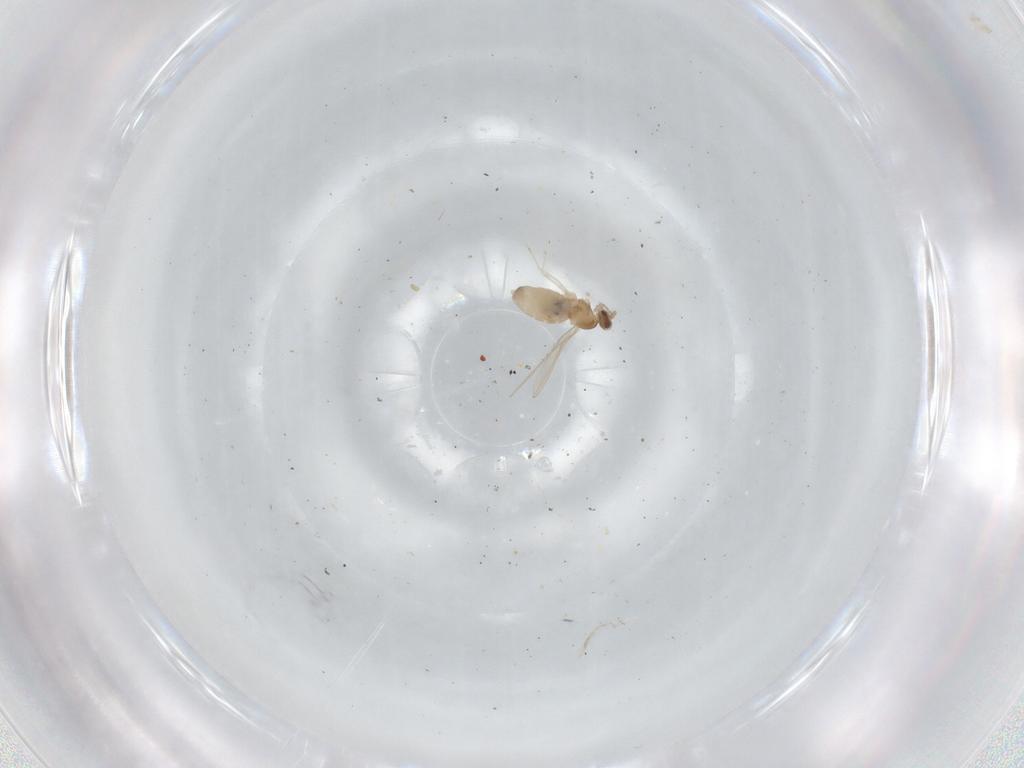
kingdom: Animalia
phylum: Arthropoda
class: Insecta
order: Diptera
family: Cecidomyiidae
